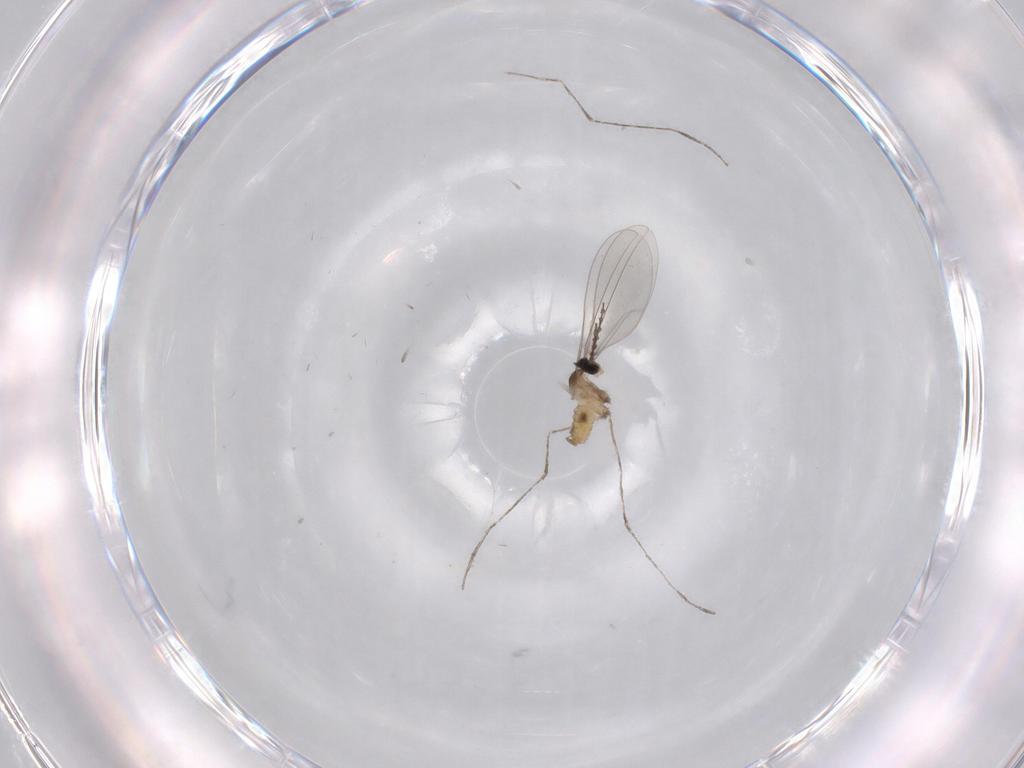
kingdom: Animalia
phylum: Arthropoda
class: Insecta
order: Diptera
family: Cecidomyiidae
